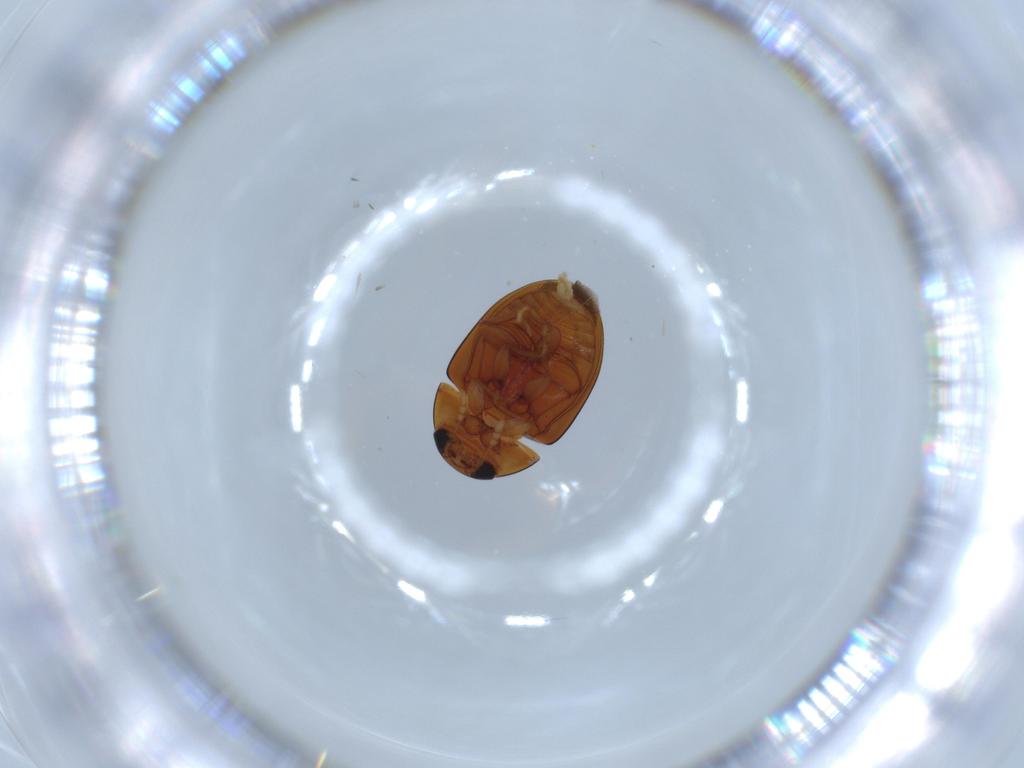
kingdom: Animalia
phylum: Arthropoda
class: Insecta
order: Coleoptera
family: Phalacridae
